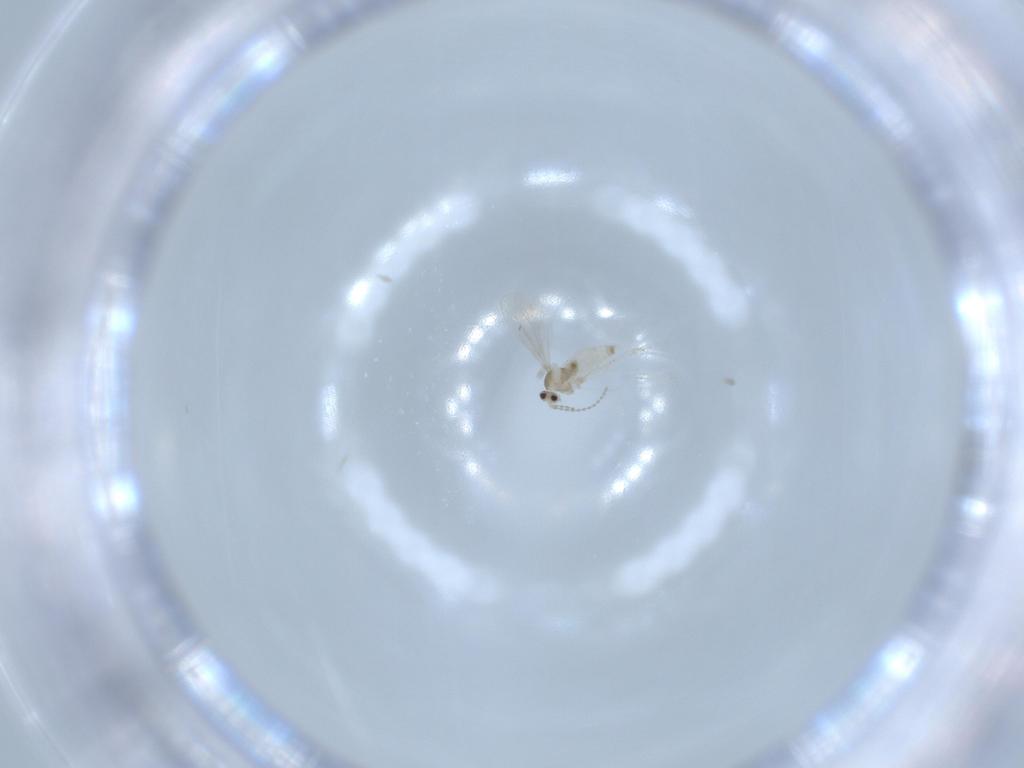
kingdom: Animalia
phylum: Arthropoda
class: Insecta
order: Diptera
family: Cecidomyiidae
